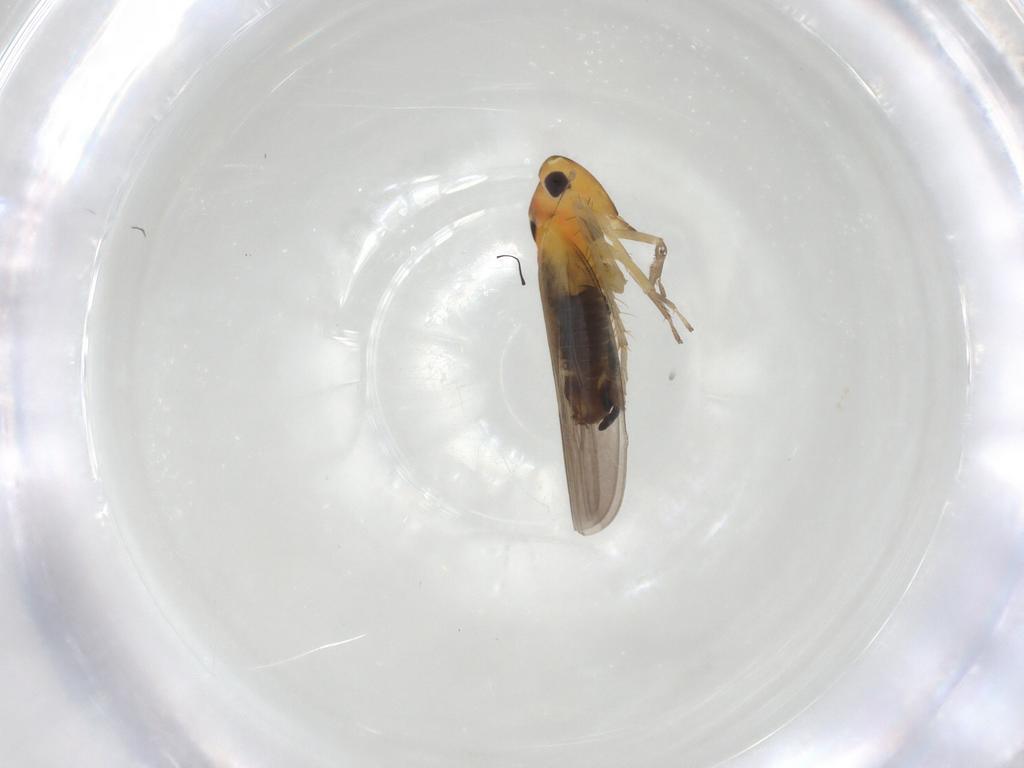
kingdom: Animalia
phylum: Arthropoda
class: Insecta
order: Hemiptera
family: Cicadellidae
